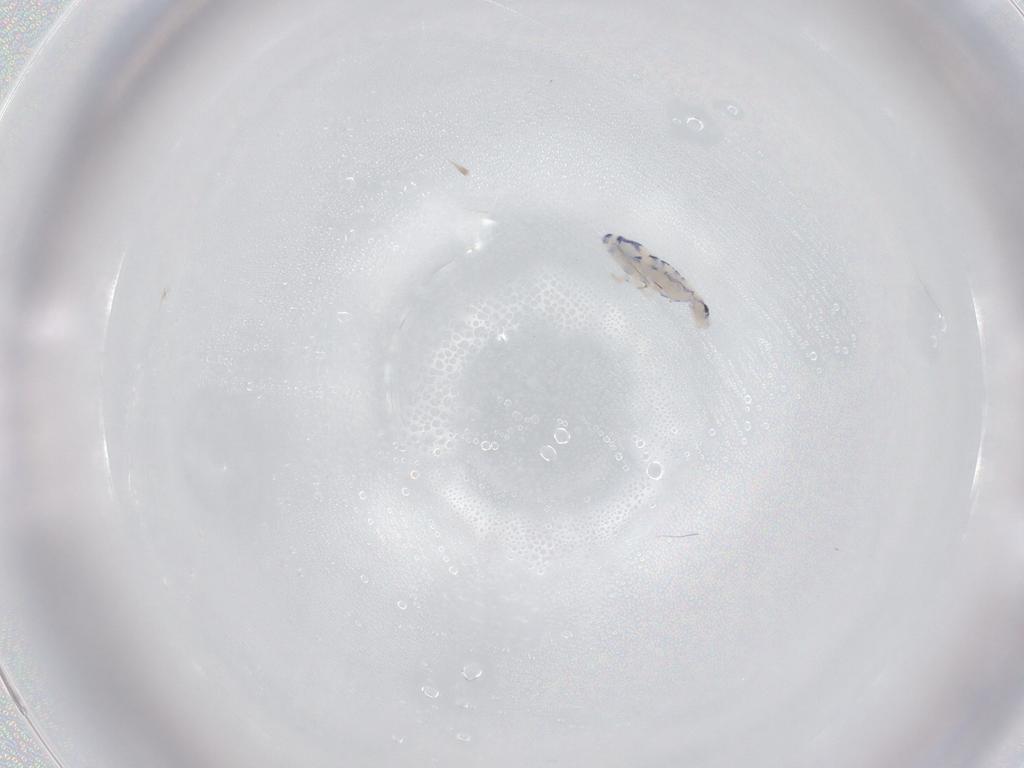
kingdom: Animalia
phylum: Arthropoda
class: Collembola
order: Entomobryomorpha
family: Entomobryidae
